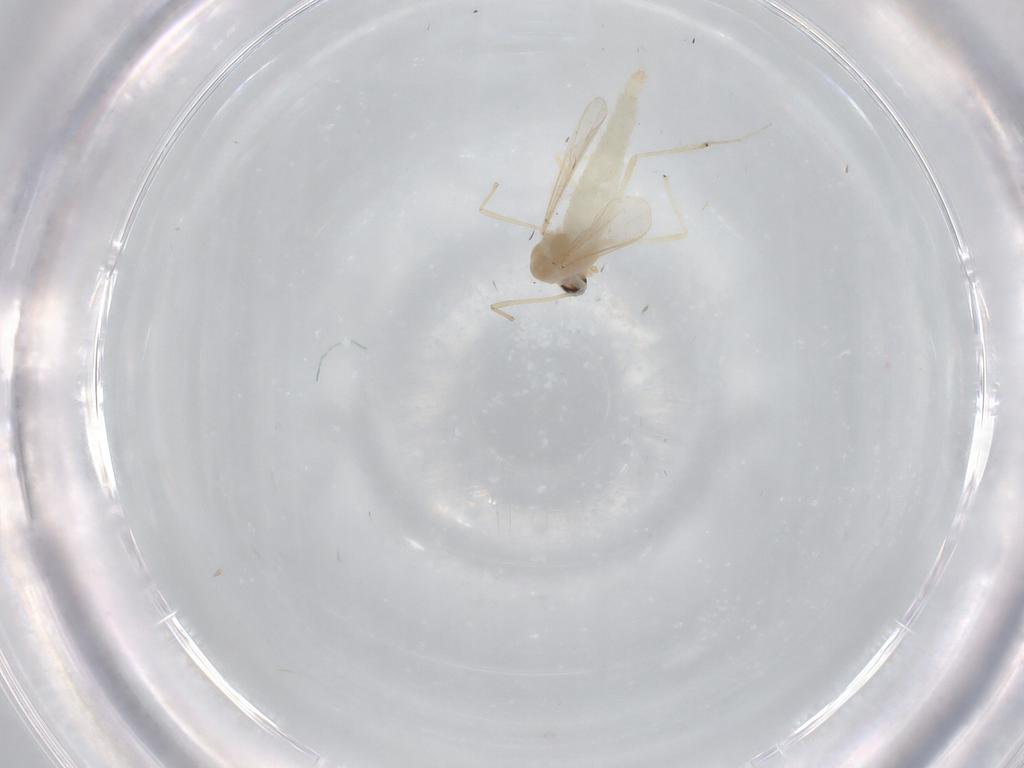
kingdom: Animalia
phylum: Arthropoda
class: Insecta
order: Diptera
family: Chironomidae
